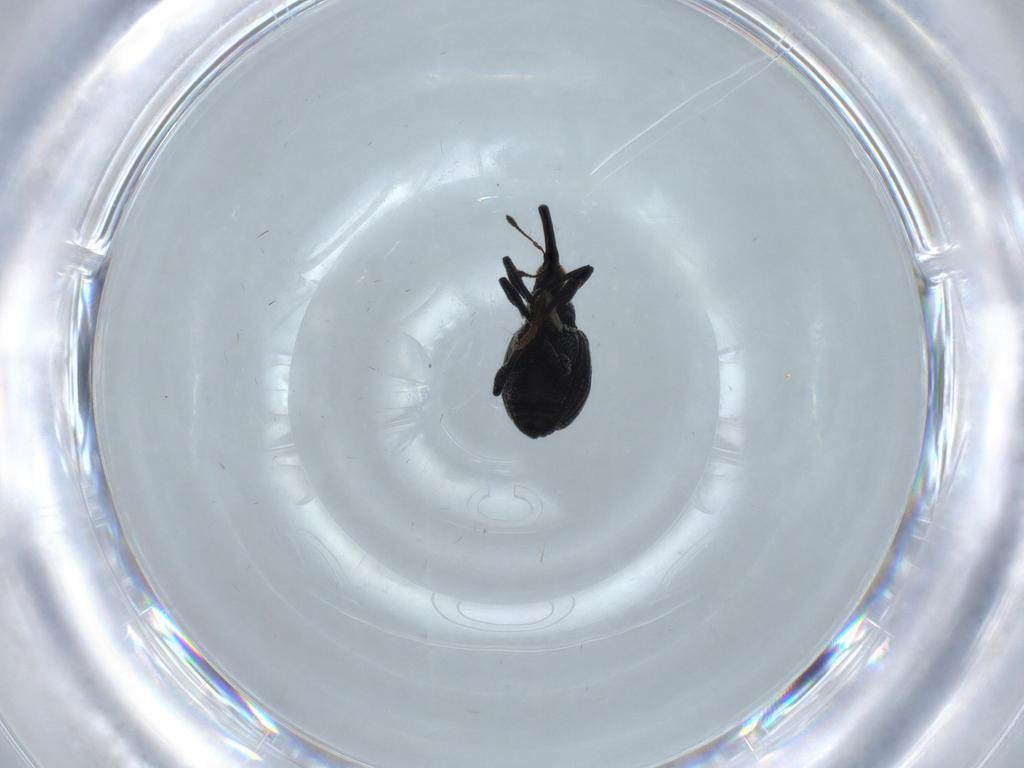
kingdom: Animalia
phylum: Arthropoda
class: Insecta
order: Coleoptera
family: Brentidae
